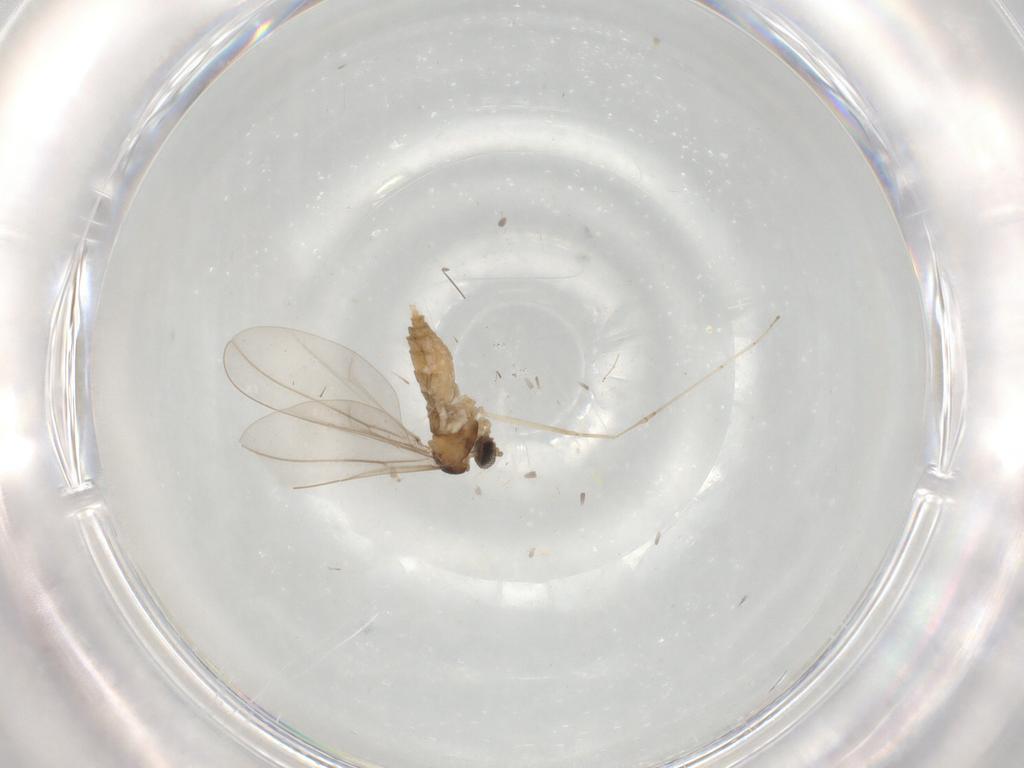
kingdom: Animalia
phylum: Arthropoda
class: Insecta
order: Diptera
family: Cecidomyiidae
